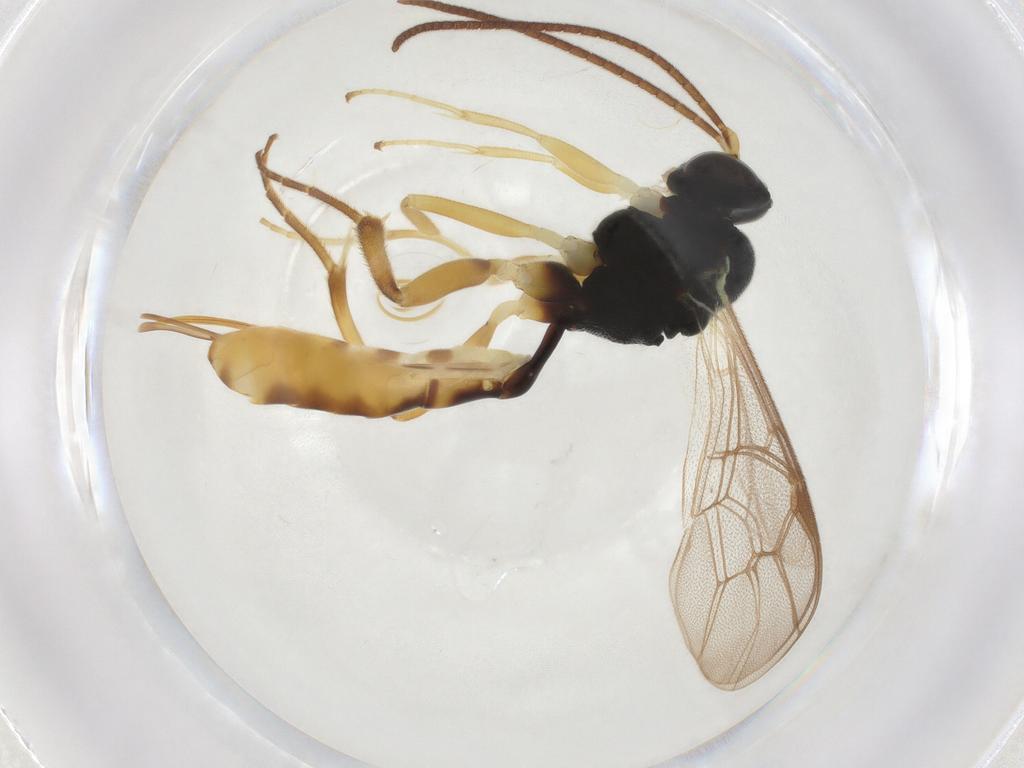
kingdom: Animalia
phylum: Arthropoda
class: Insecta
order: Hymenoptera
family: Ichneumonidae
